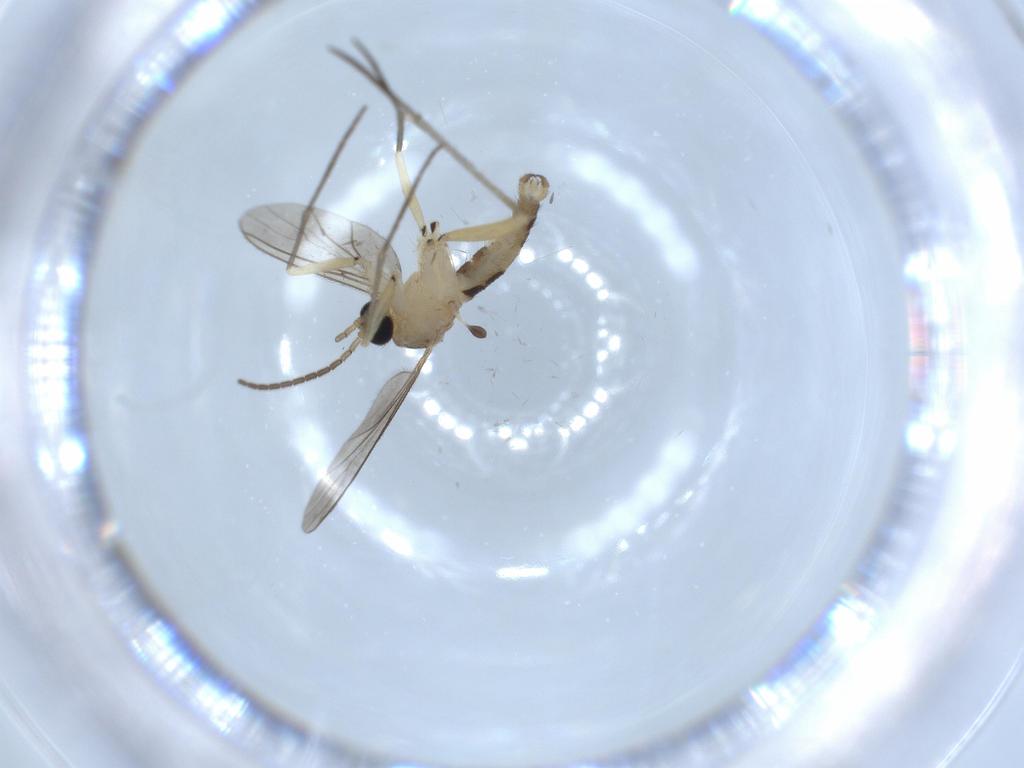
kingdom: Animalia
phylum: Arthropoda
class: Insecta
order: Diptera
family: Sciaridae
